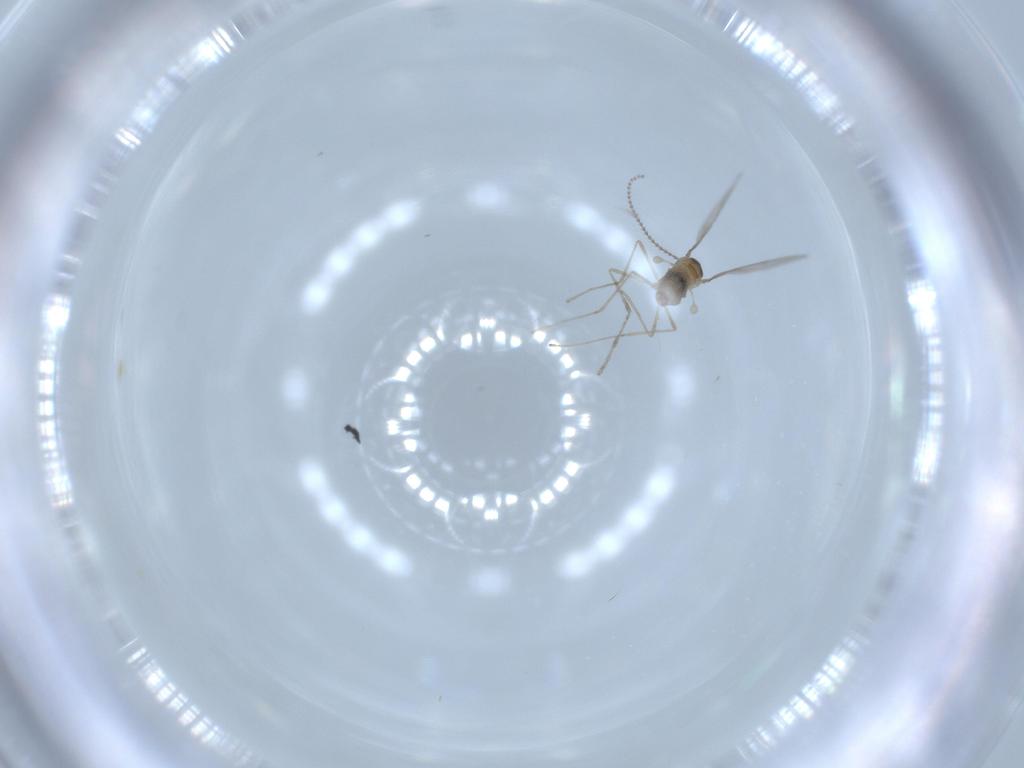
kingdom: Animalia
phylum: Arthropoda
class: Insecta
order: Diptera
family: Cecidomyiidae
